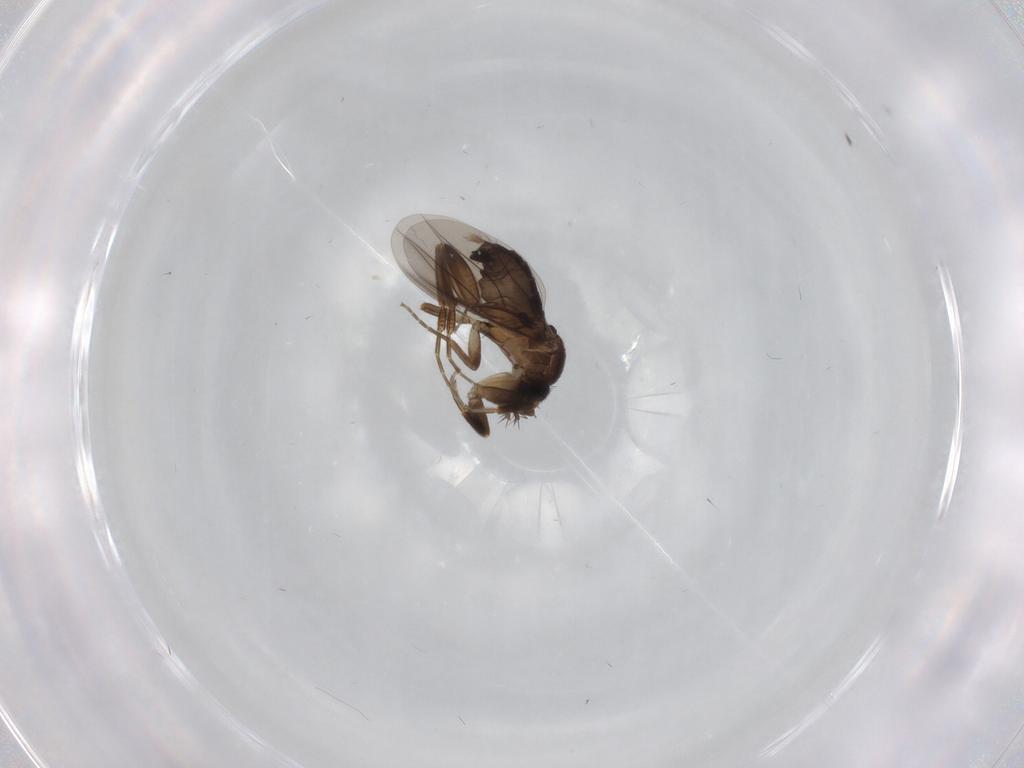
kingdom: Animalia
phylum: Arthropoda
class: Insecta
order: Diptera
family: Phoridae
